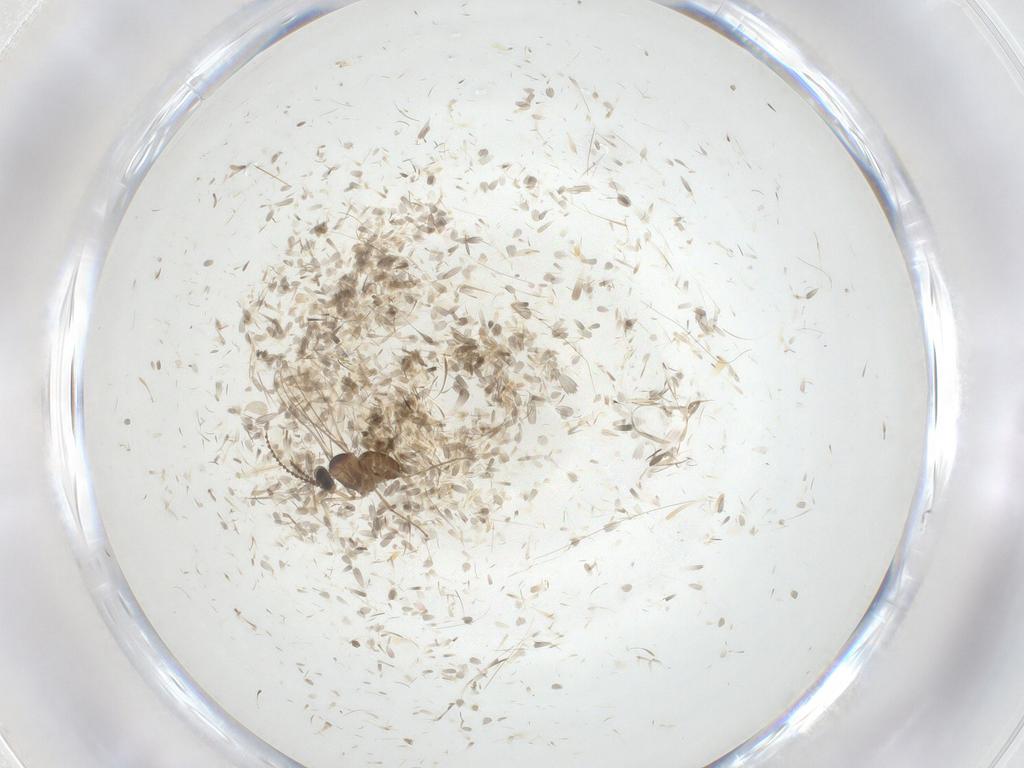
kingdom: Animalia
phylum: Arthropoda
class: Insecta
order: Diptera
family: Cecidomyiidae
